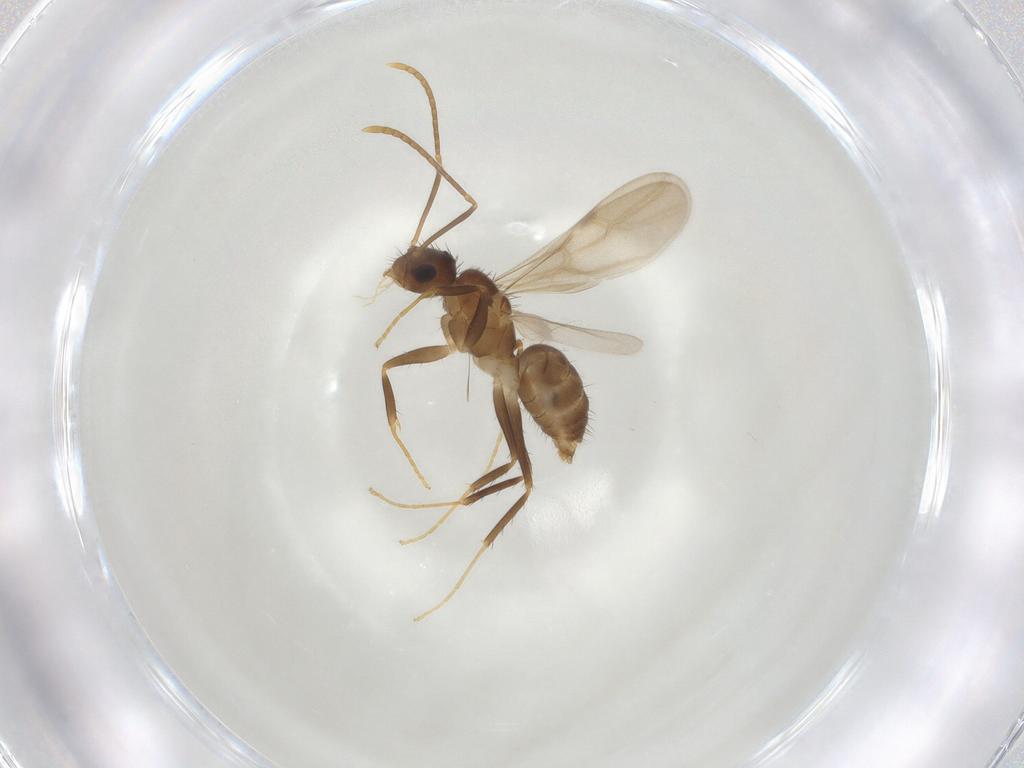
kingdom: Animalia
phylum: Arthropoda
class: Insecta
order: Hymenoptera
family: Formicidae
